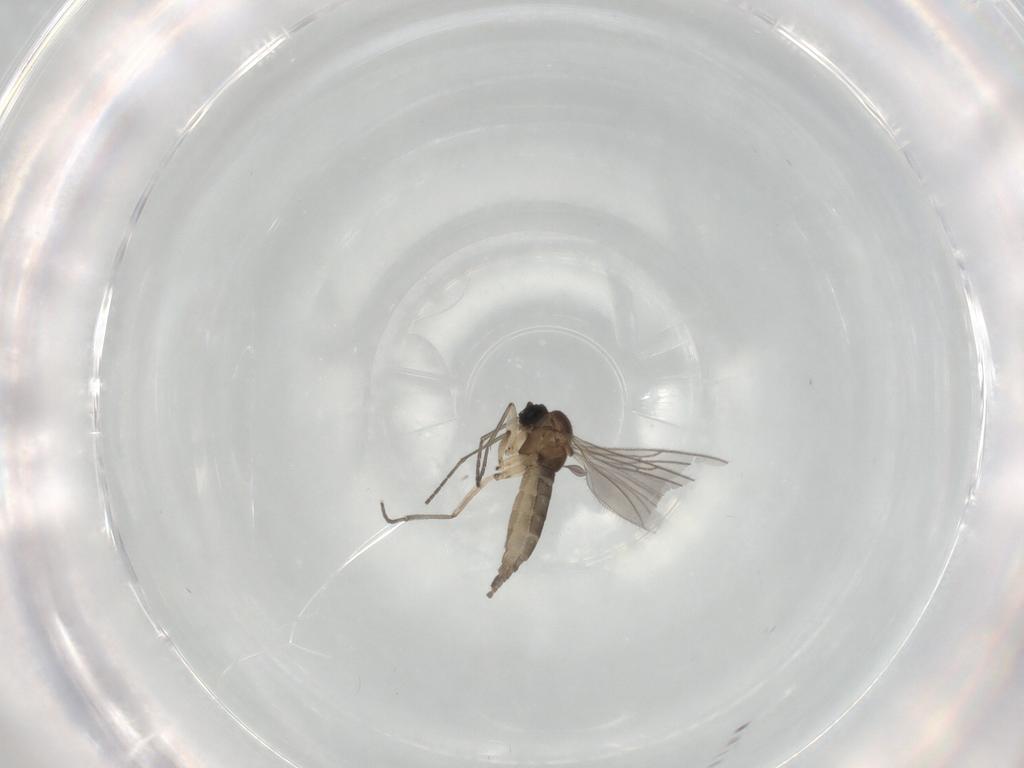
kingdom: Animalia
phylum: Arthropoda
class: Insecta
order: Diptera
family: Sciaridae
